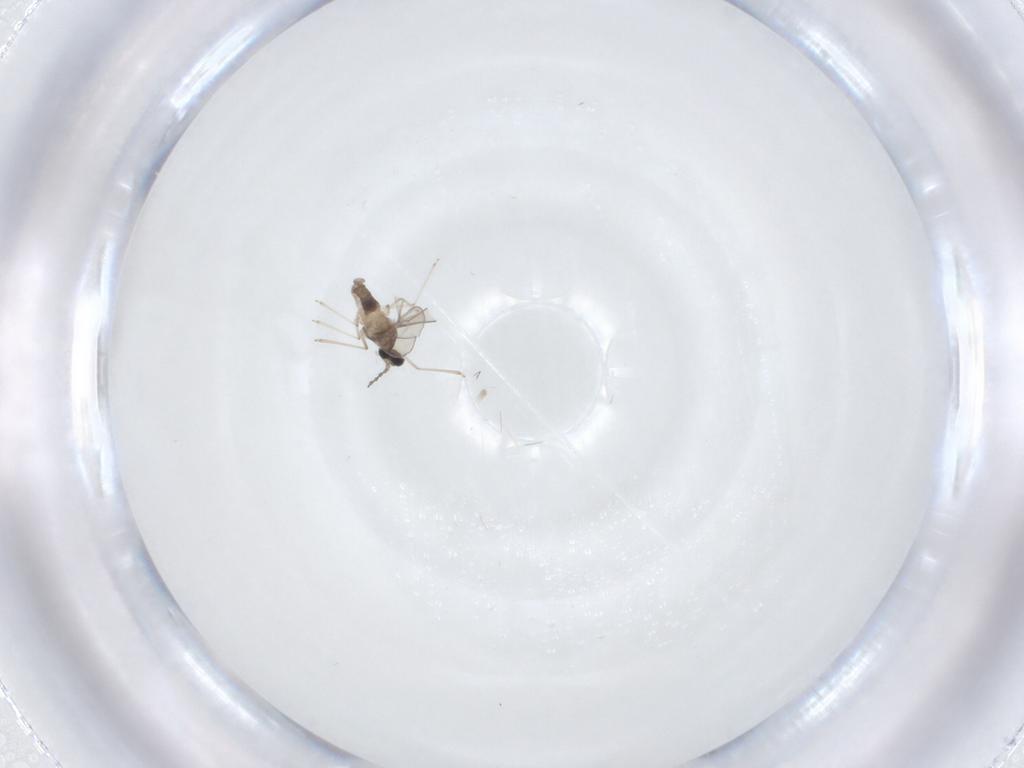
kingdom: Animalia
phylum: Arthropoda
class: Insecta
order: Diptera
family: Cecidomyiidae
